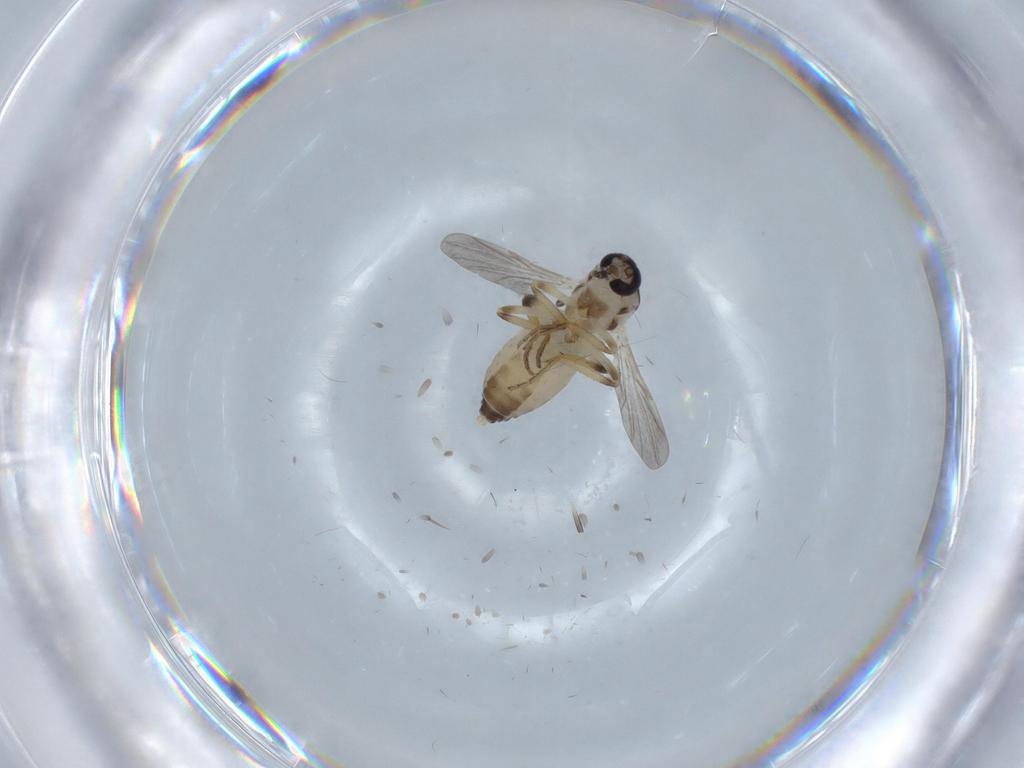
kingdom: Animalia
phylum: Arthropoda
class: Insecta
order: Diptera
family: Ceratopogonidae
